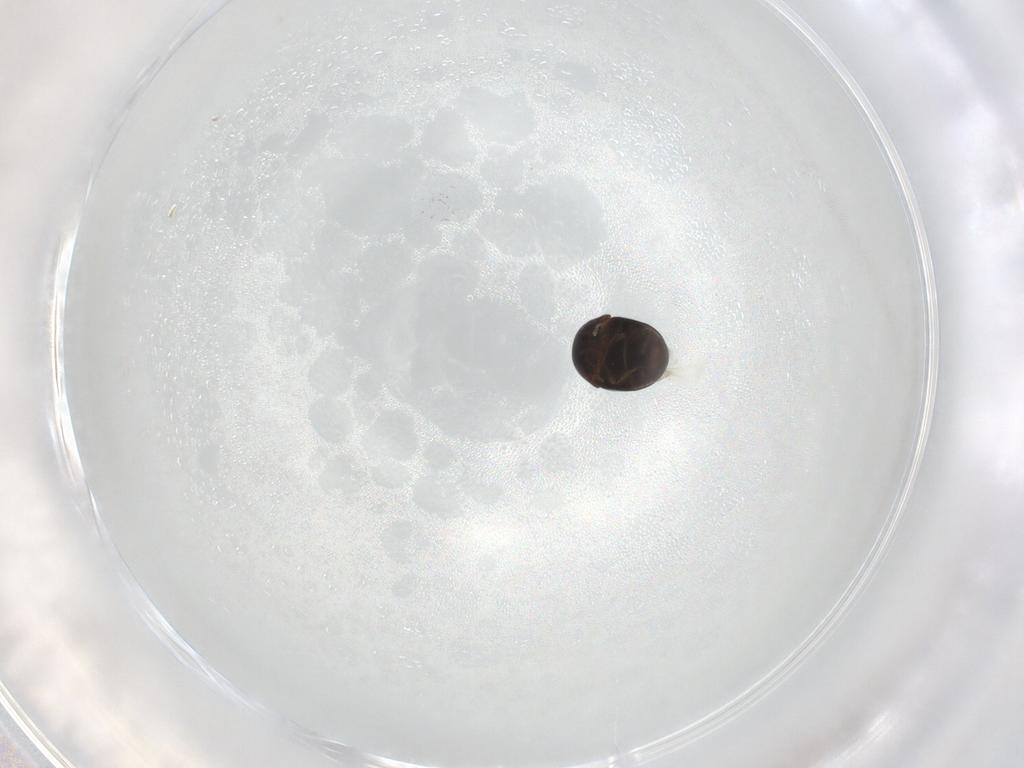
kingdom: Animalia
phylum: Arthropoda
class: Insecta
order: Coleoptera
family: Cybocephalidae
